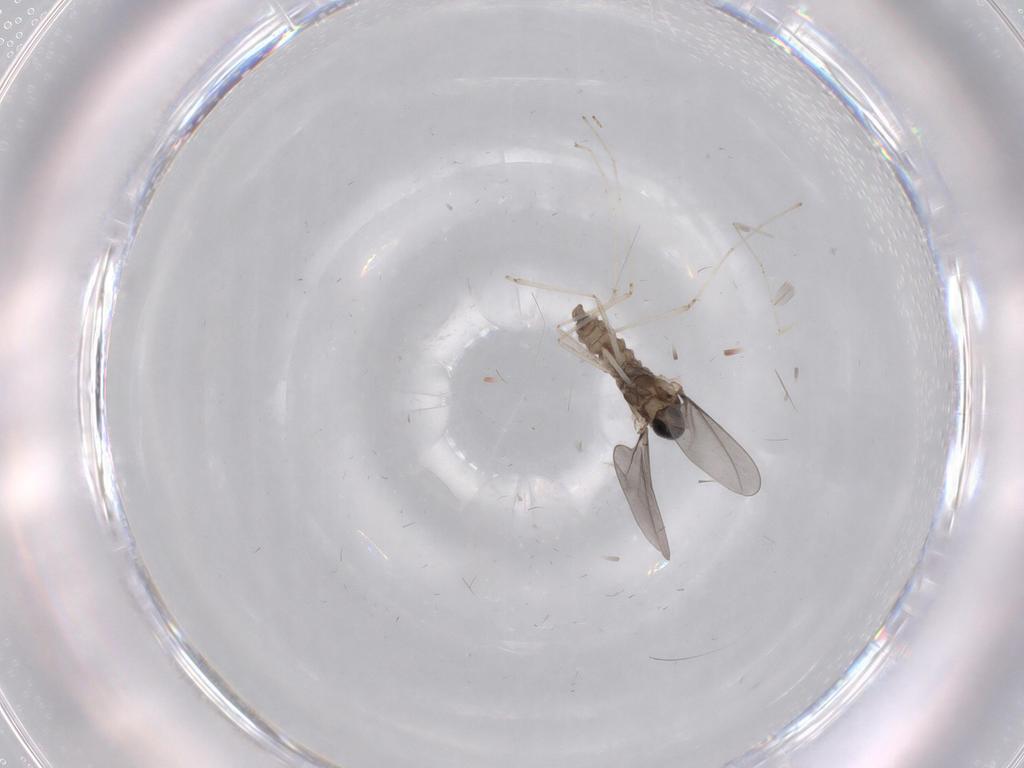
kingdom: Animalia
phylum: Arthropoda
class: Insecta
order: Diptera
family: Cecidomyiidae
